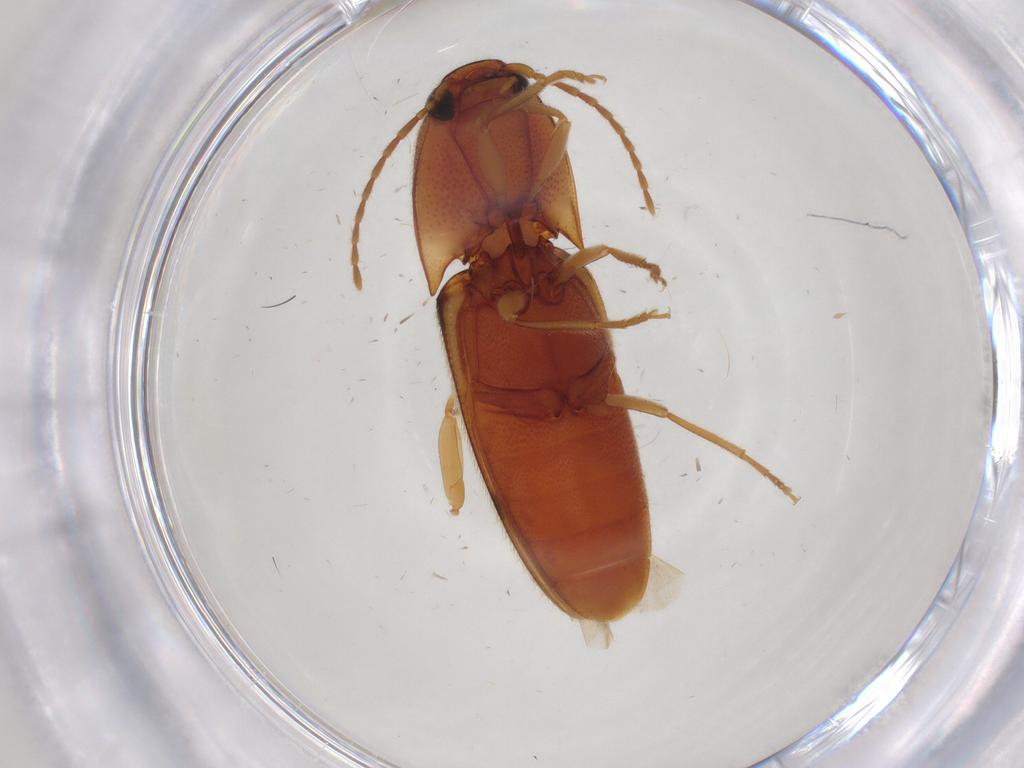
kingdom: Animalia
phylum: Arthropoda
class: Insecta
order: Coleoptera
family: Elateridae
